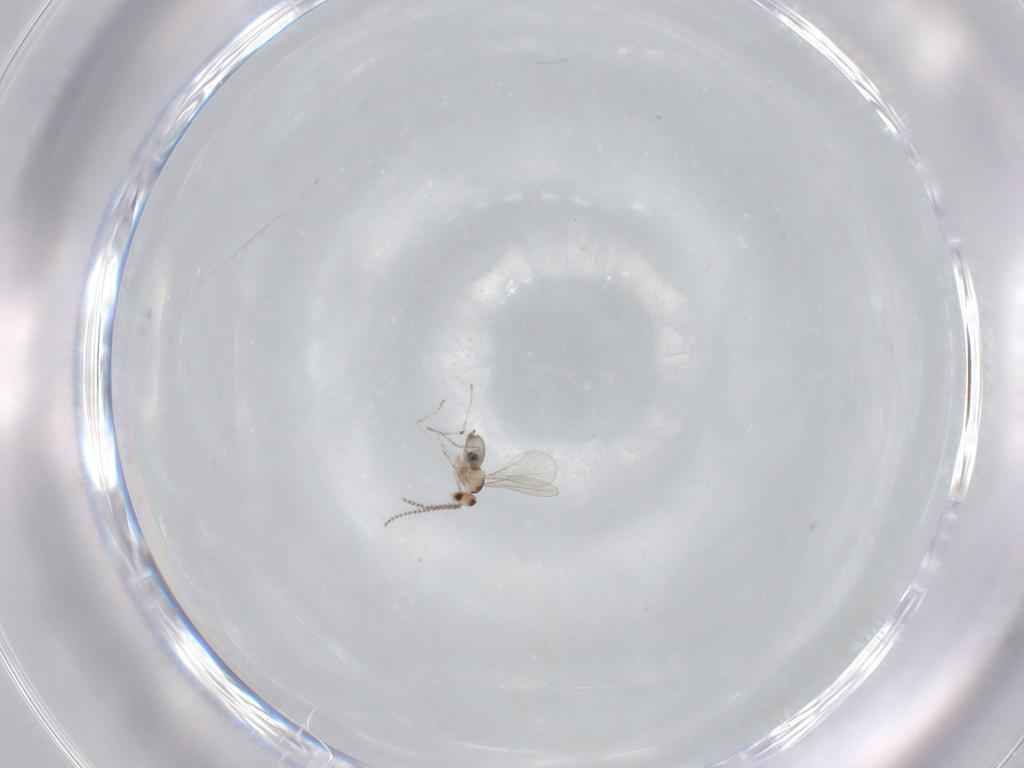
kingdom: Animalia
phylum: Arthropoda
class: Insecta
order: Diptera
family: Cecidomyiidae
